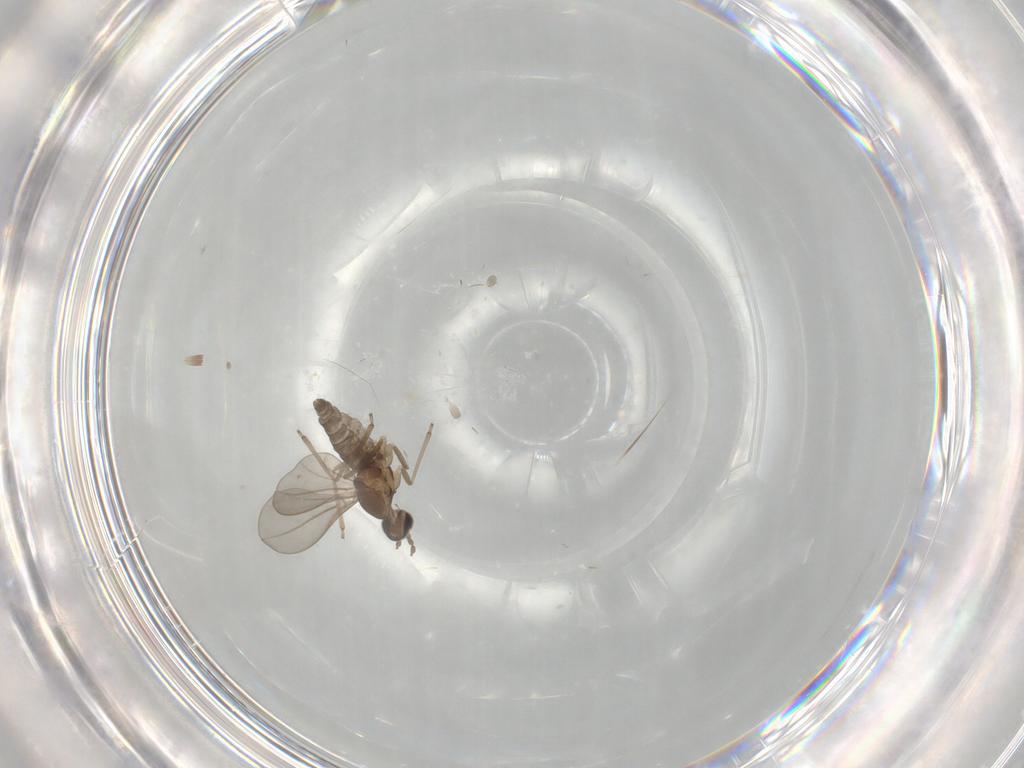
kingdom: Animalia
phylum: Arthropoda
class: Insecta
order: Diptera
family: Cecidomyiidae
